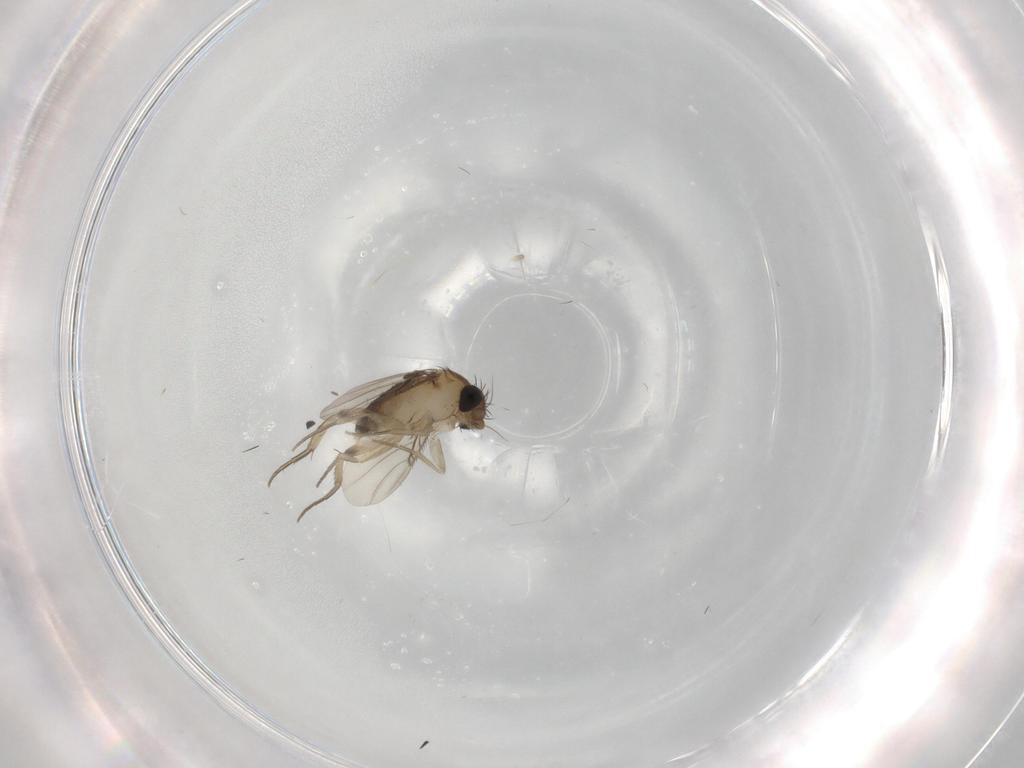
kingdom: Animalia
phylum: Arthropoda
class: Insecta
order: Diptera
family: Phoridae
